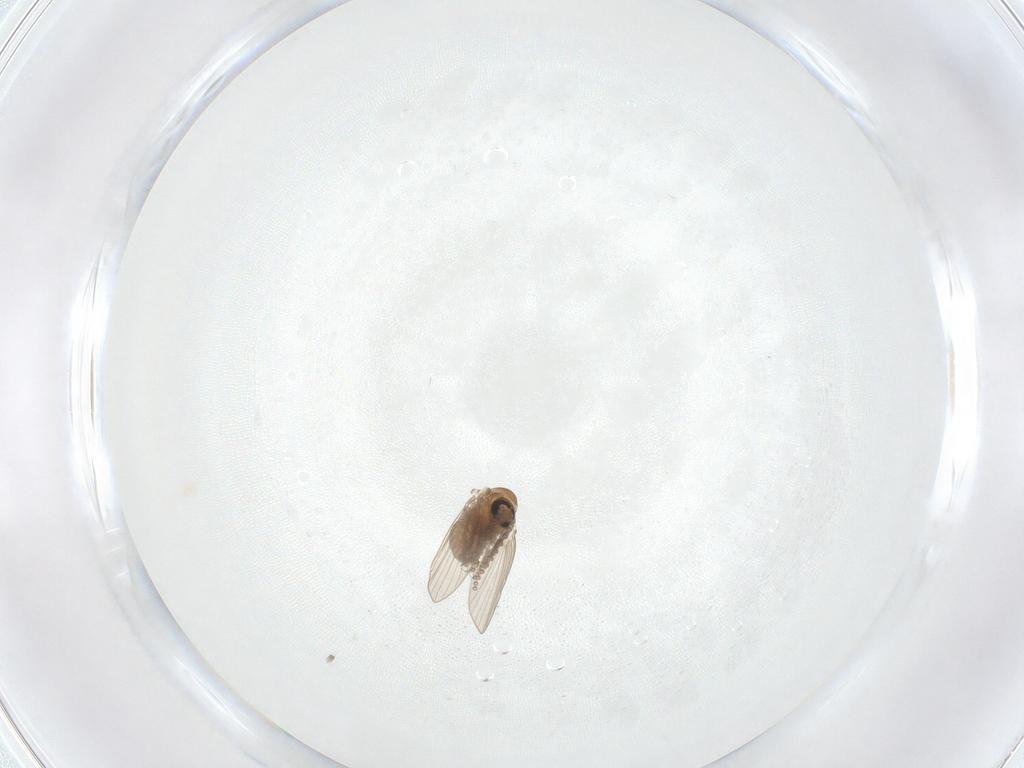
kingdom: Animalia
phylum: Arthropoda
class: Insecta
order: Diptera
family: Psychodidae
